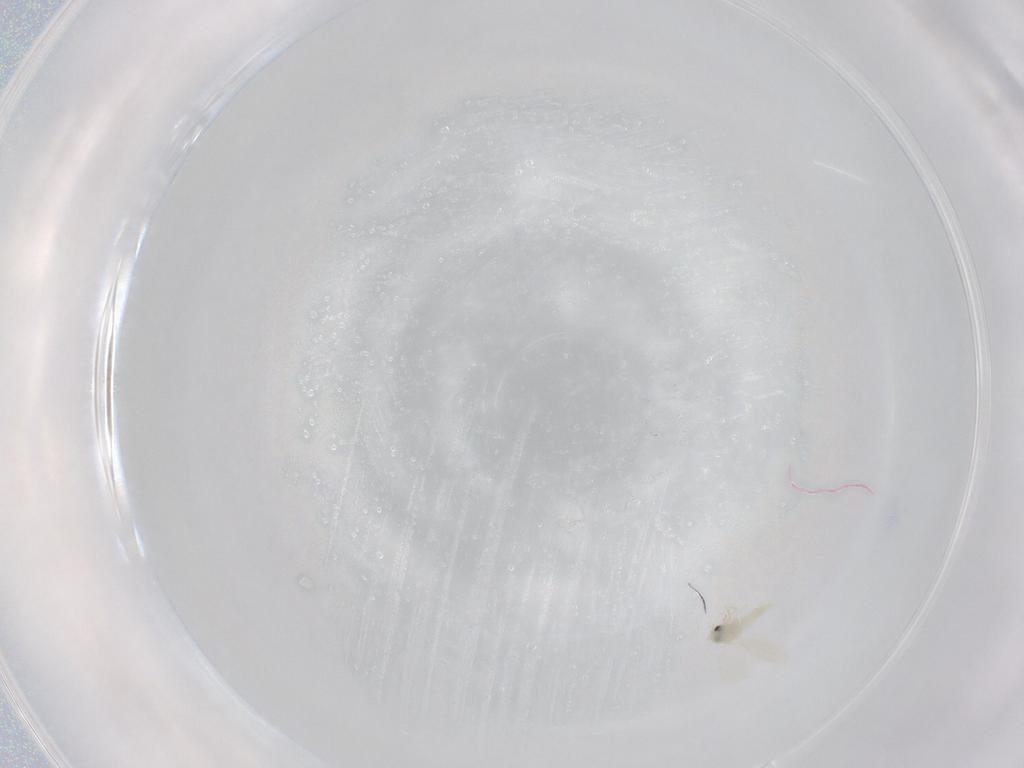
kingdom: Animalia
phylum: Arthropoda
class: Insecta
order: Hemiptera
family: Aleyrodidae
